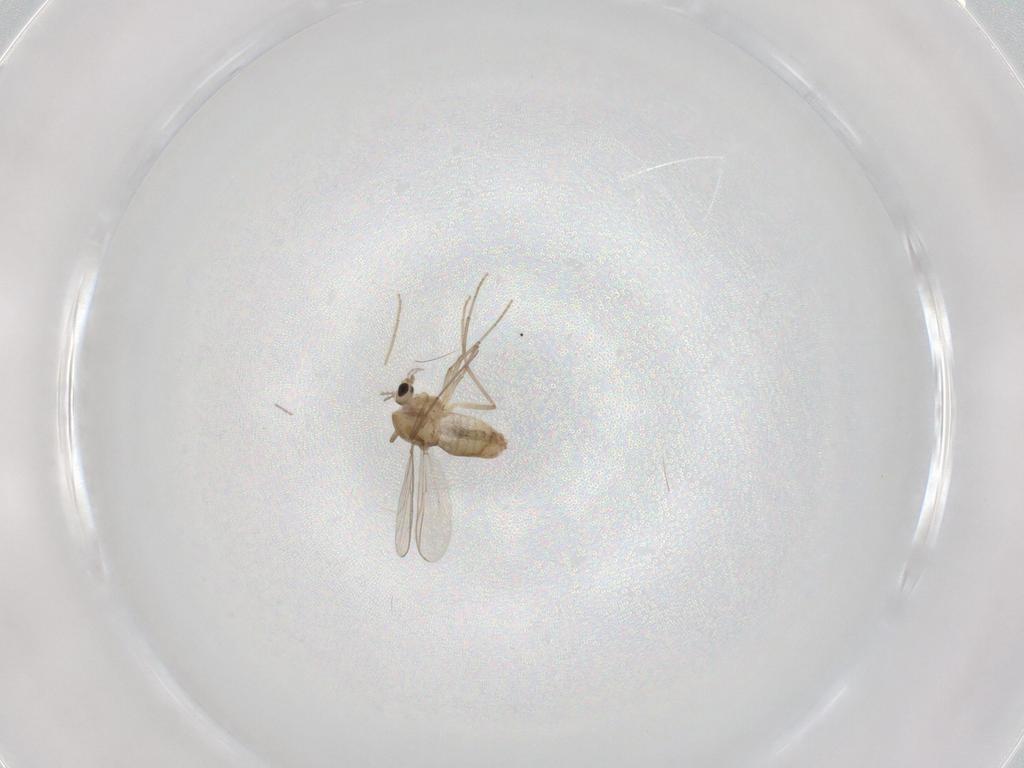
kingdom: Animalia
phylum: Arthropoda
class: Insecta
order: Diptera
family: Chironomidae
